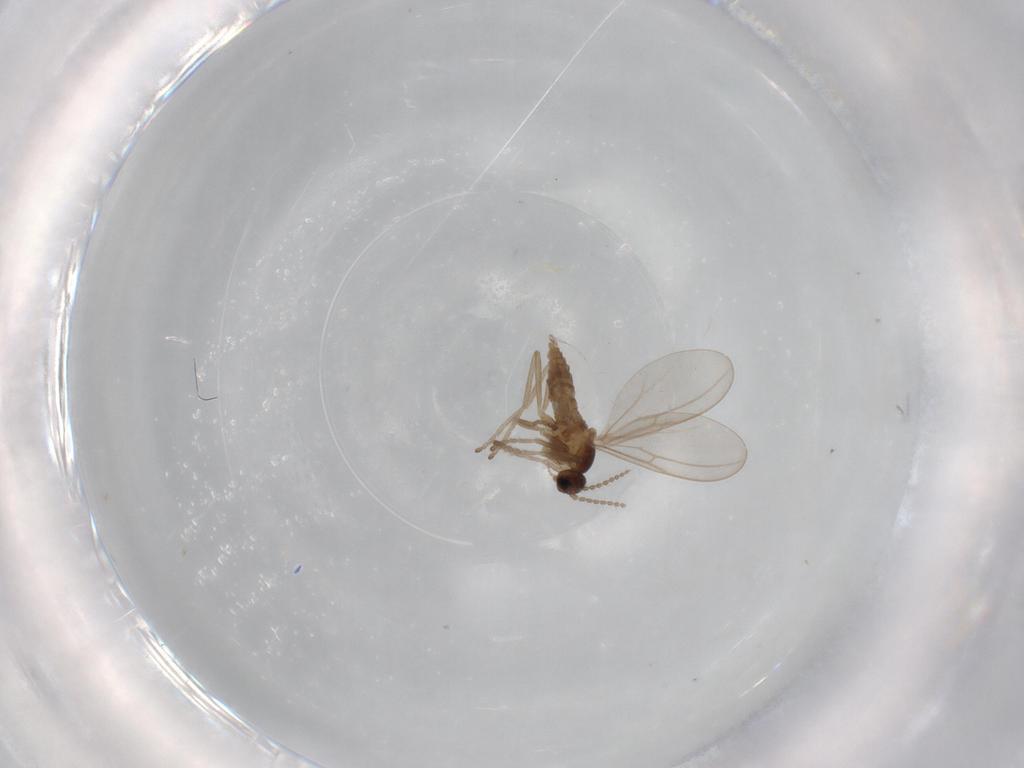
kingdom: Animalia
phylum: Arthropoda
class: Insecta
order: Diptera
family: Cecidomyiidae
